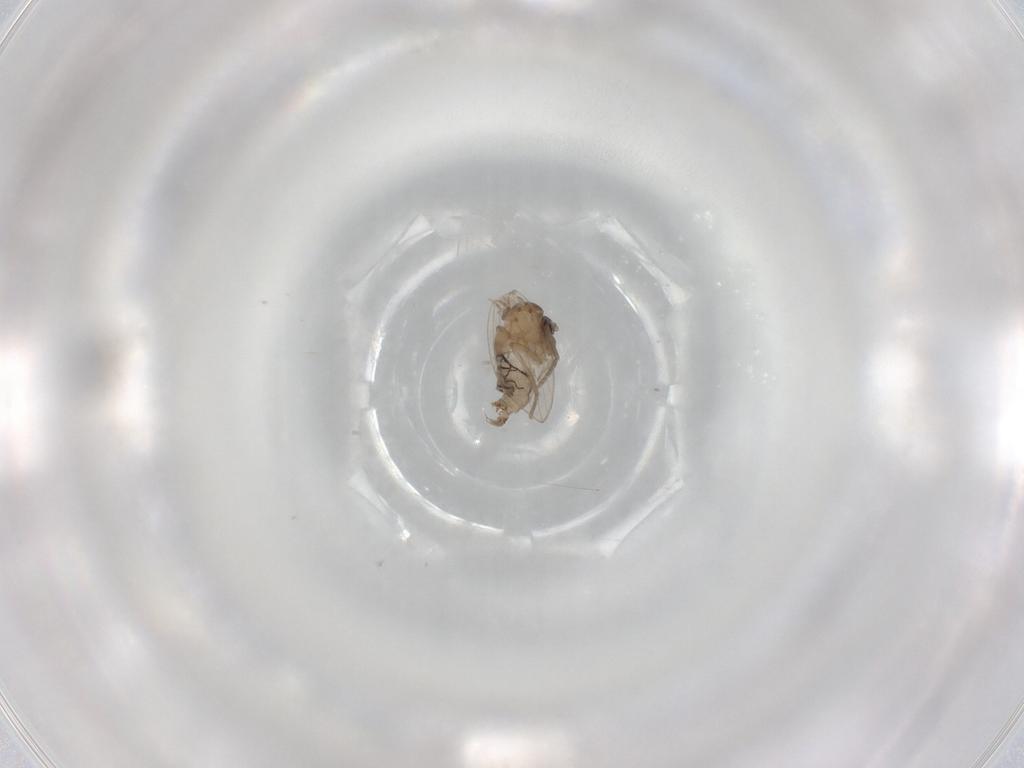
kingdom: Animalia
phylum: Arthropoda
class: Insecta
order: Diptera
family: Psychodidae
